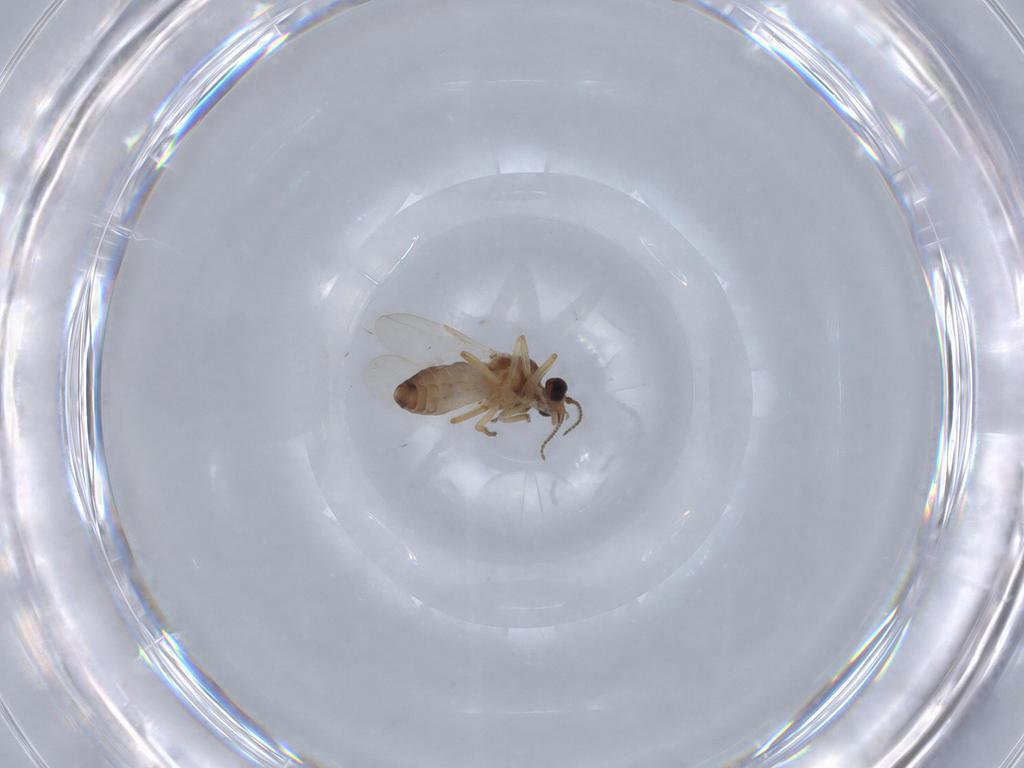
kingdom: Animalia
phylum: Arthropoda
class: Insecta
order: Diptera
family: Ceratopogonidae
